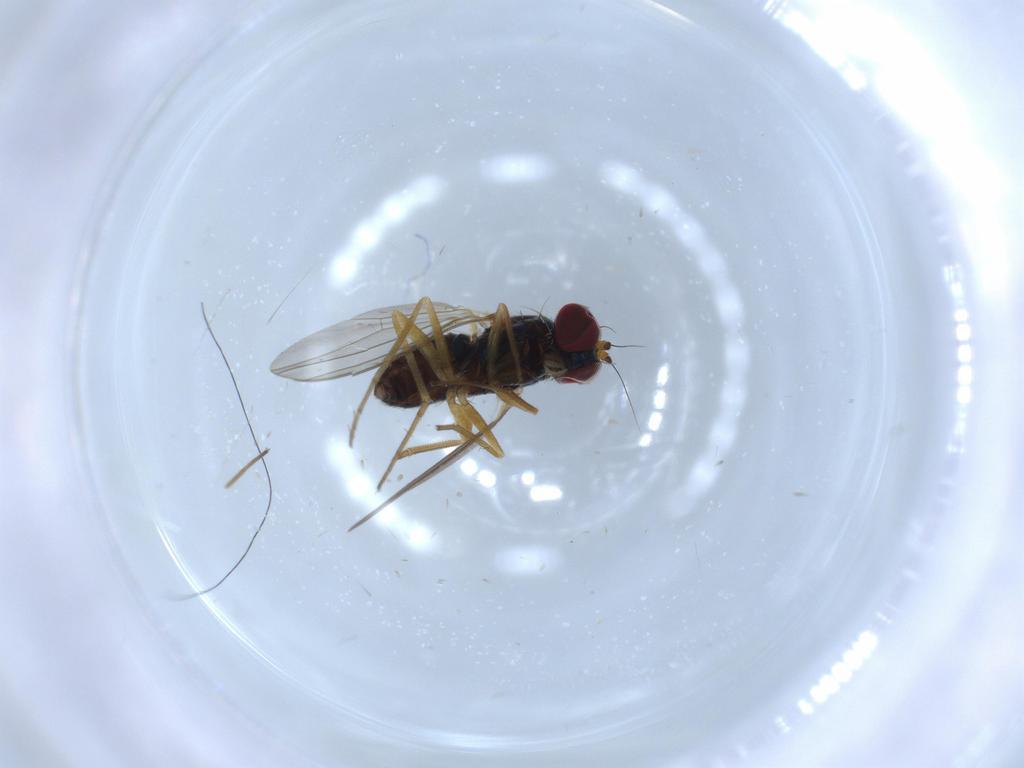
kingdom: Animalia
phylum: Arthropoda
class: Insecta
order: Diptera
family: Dolichopodidae
